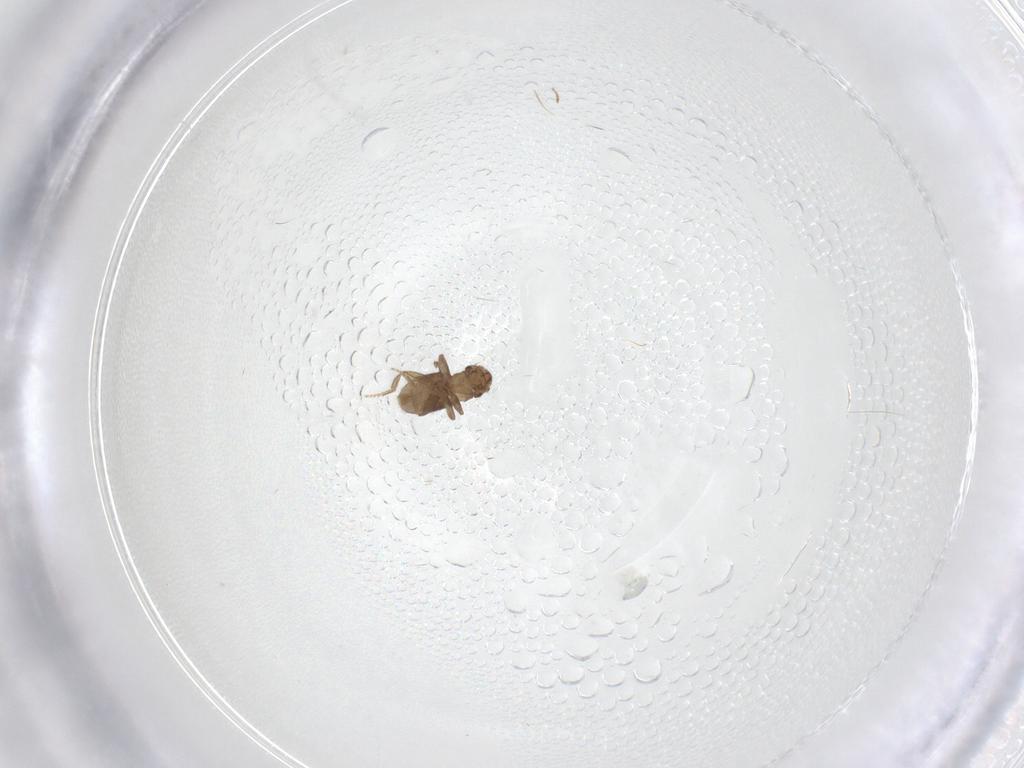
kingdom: Animalia
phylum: Arthropoda
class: Insecta
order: Diptera
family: Psychodidae
